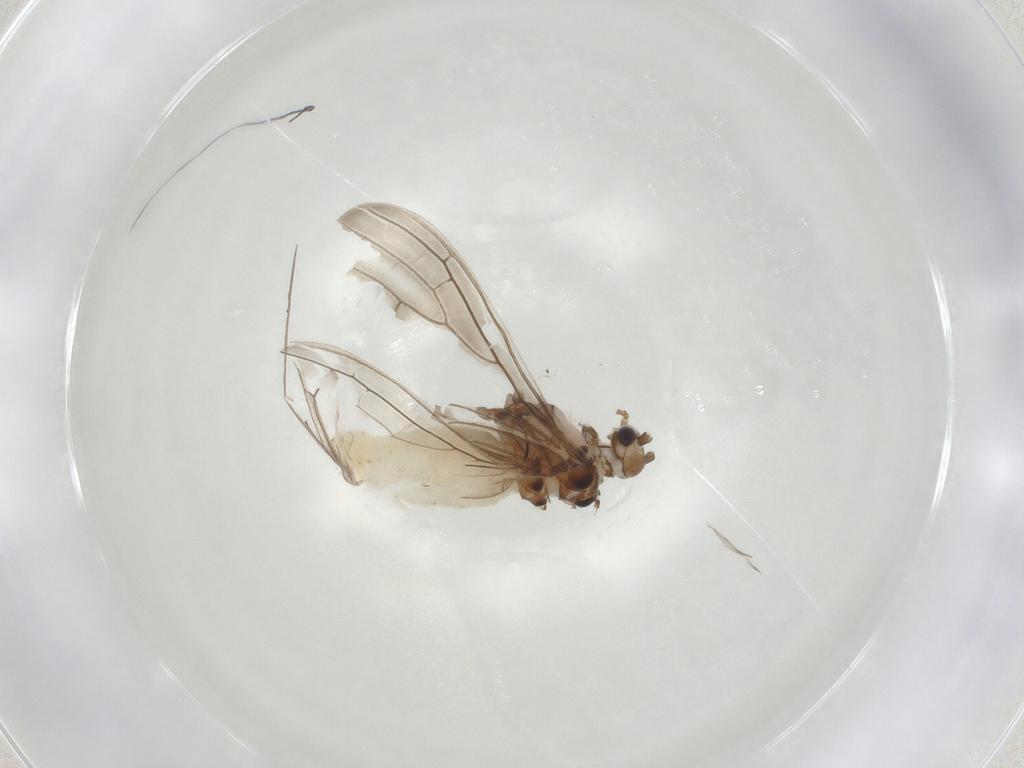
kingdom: Animalia
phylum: Arthropoda
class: Insecta
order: Neuroptera
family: Coniopterygidae
